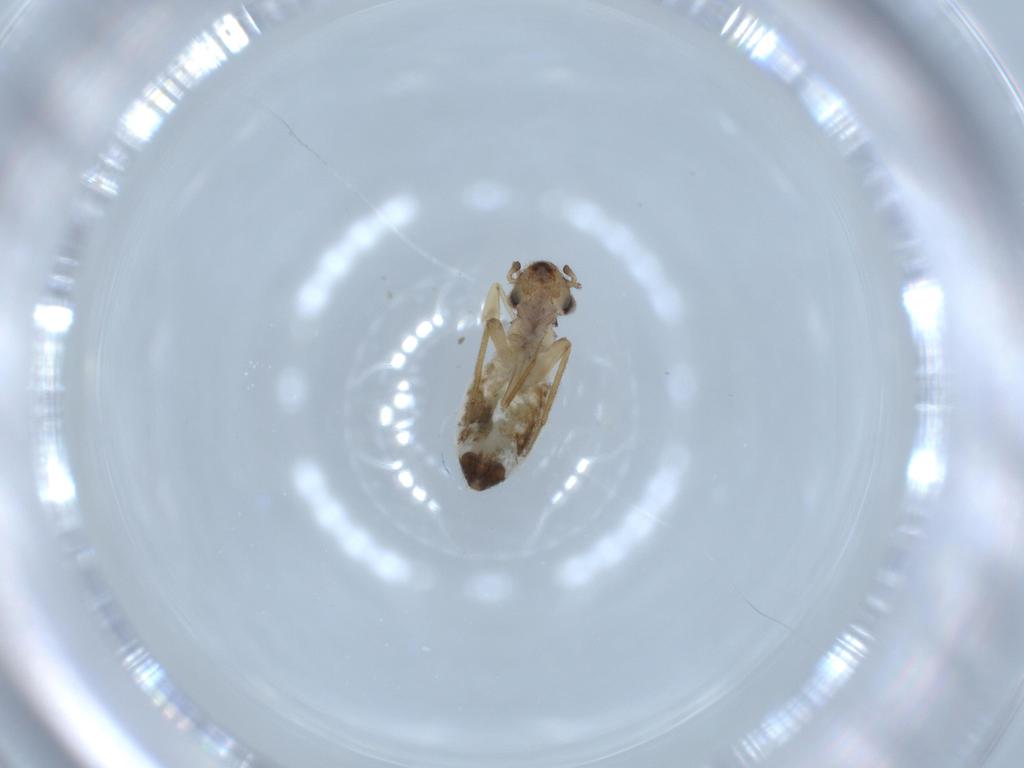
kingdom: Animalia
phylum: Arthropoda
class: Insecta
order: Psocodea
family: Lepidopsocidae
